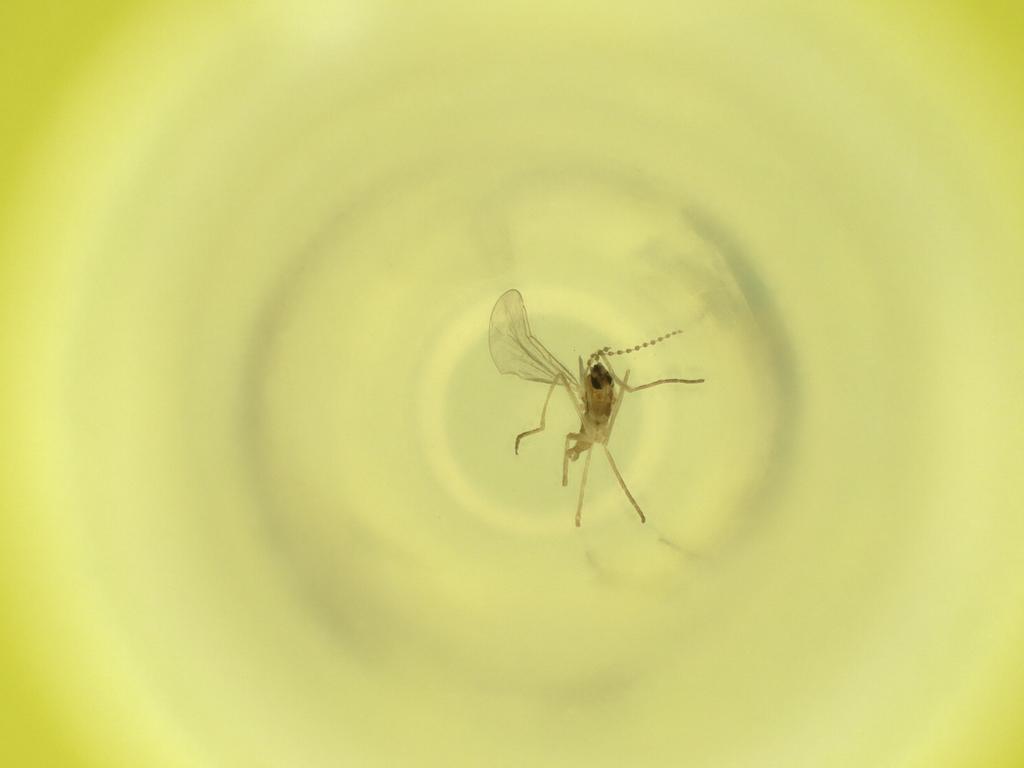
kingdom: Animalia
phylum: Arthropoda
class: Insecta
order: Diptera
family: Cecidomyiidae
